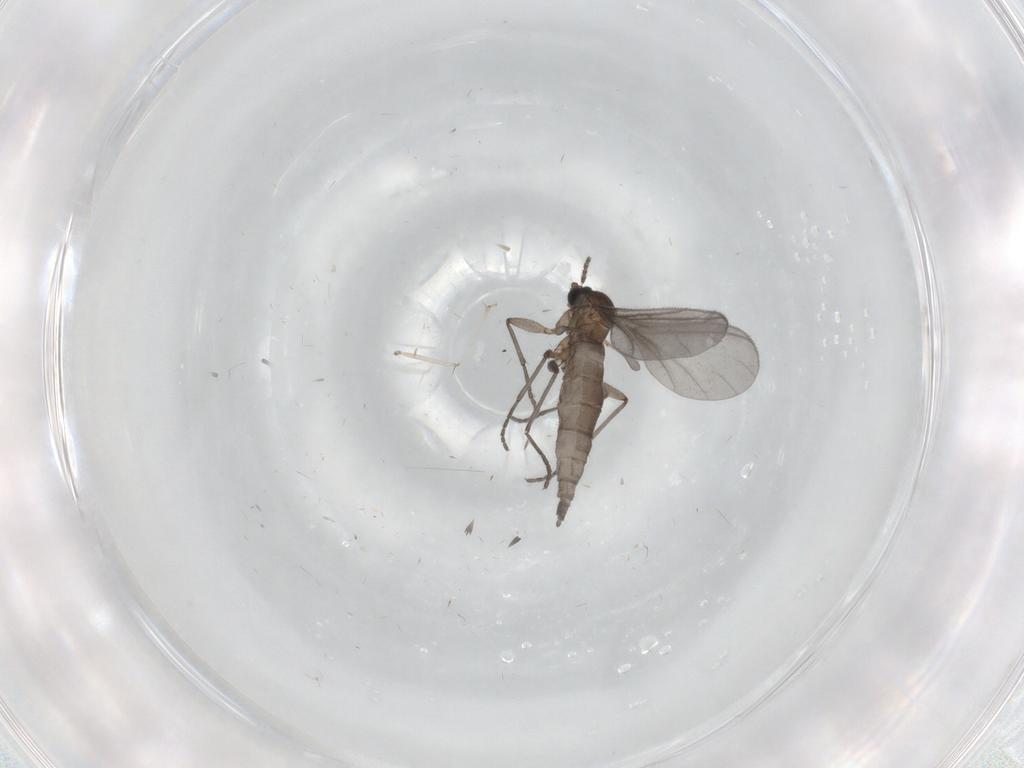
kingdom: Animalia
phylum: Arthropoda
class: Insecta
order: Diptera
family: Sciaridae
